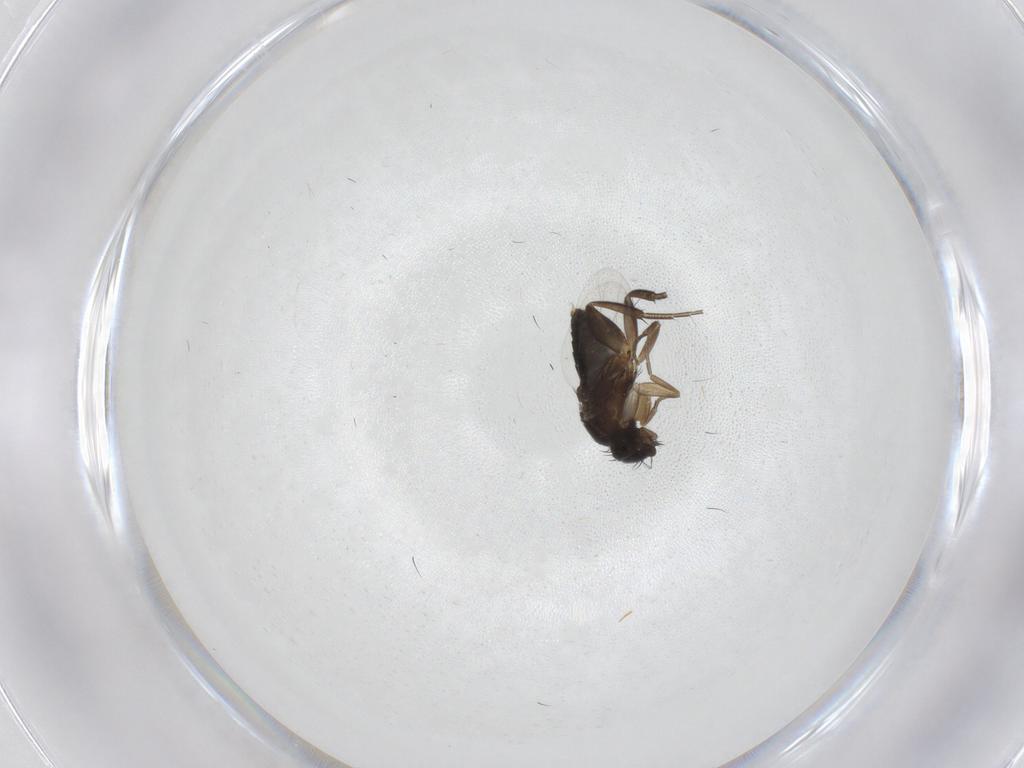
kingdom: Animalia
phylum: Arthropoda
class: Insecta
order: Diptera
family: Phoridae
